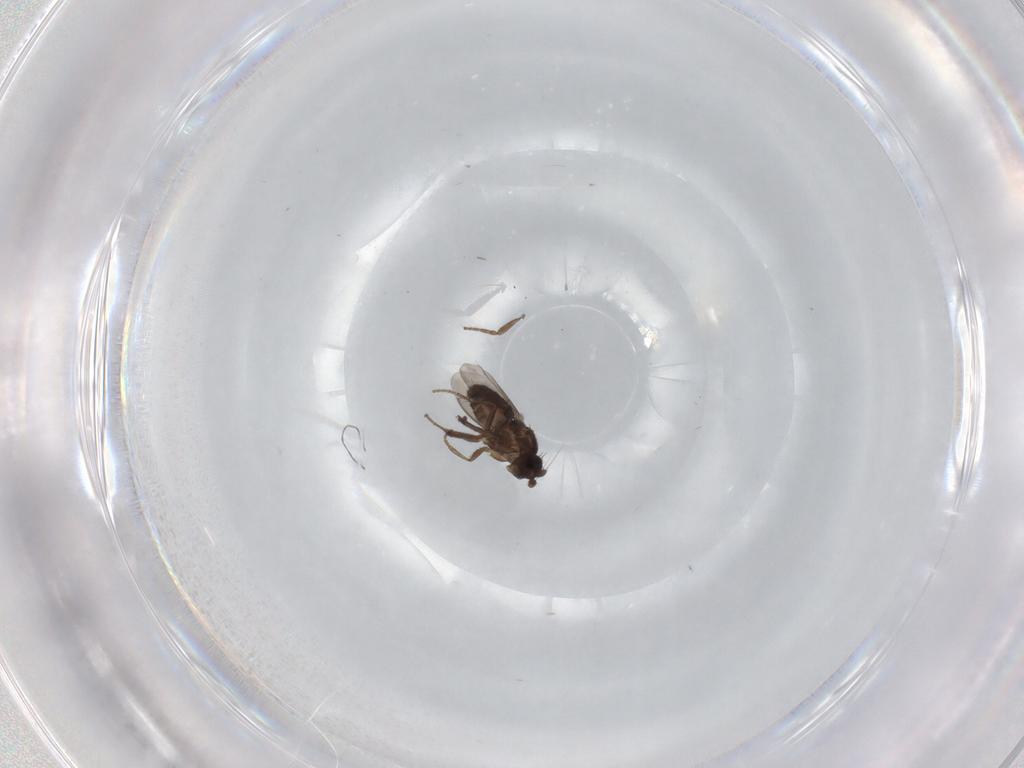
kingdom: Animalia
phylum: Arthropoda
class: Insecta
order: Diptera
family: Sphaeroceridae
